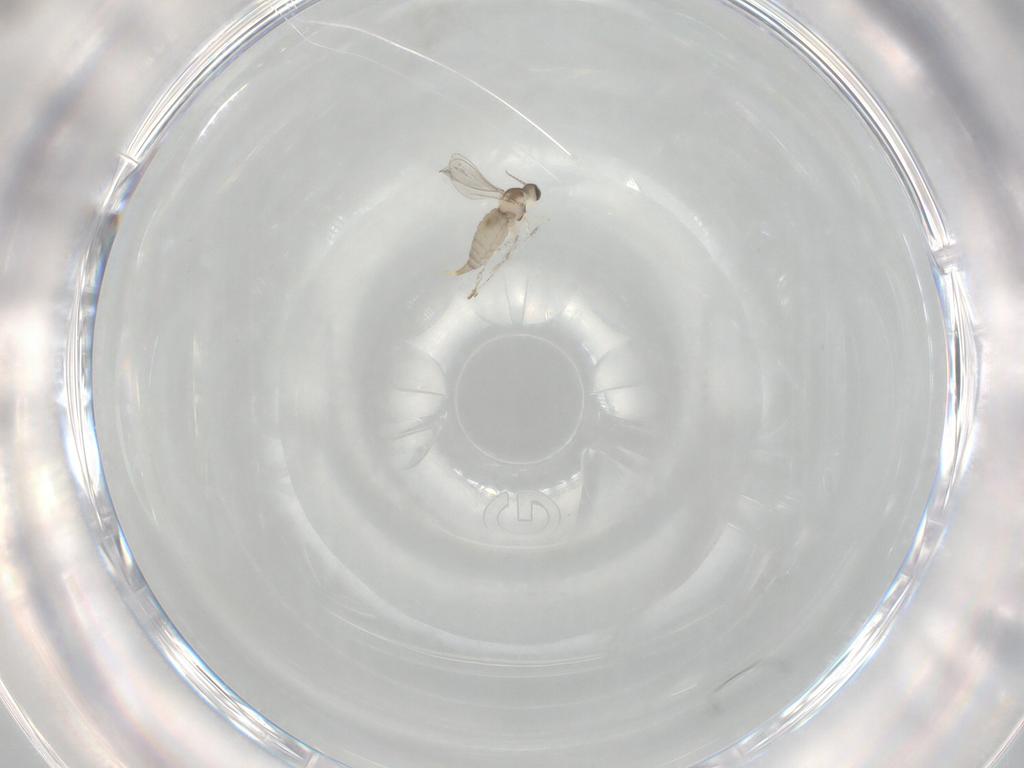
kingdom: Animalia
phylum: Arthropoda
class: Insecta
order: Diptera
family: Cecidomyiidae
